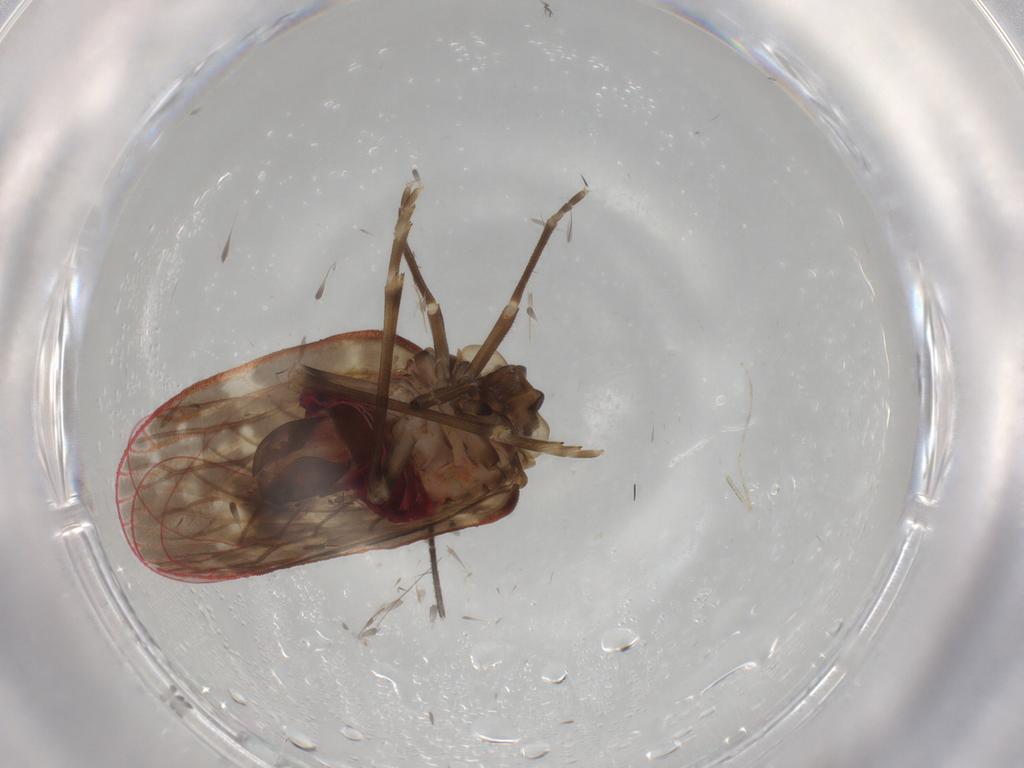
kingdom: Animalia
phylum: Arthropoda
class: Insecta
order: Hemiptera
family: Achilidae
